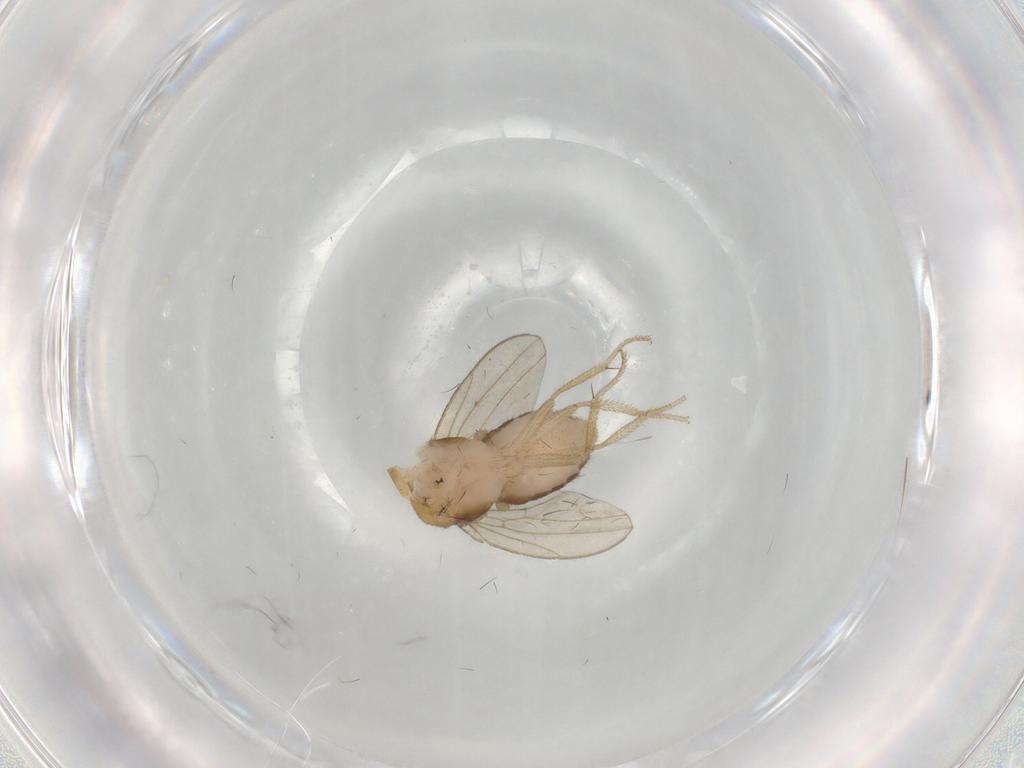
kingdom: Animalia
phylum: Arthropoda
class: Insecta
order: Diptera
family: Drosophilidae
